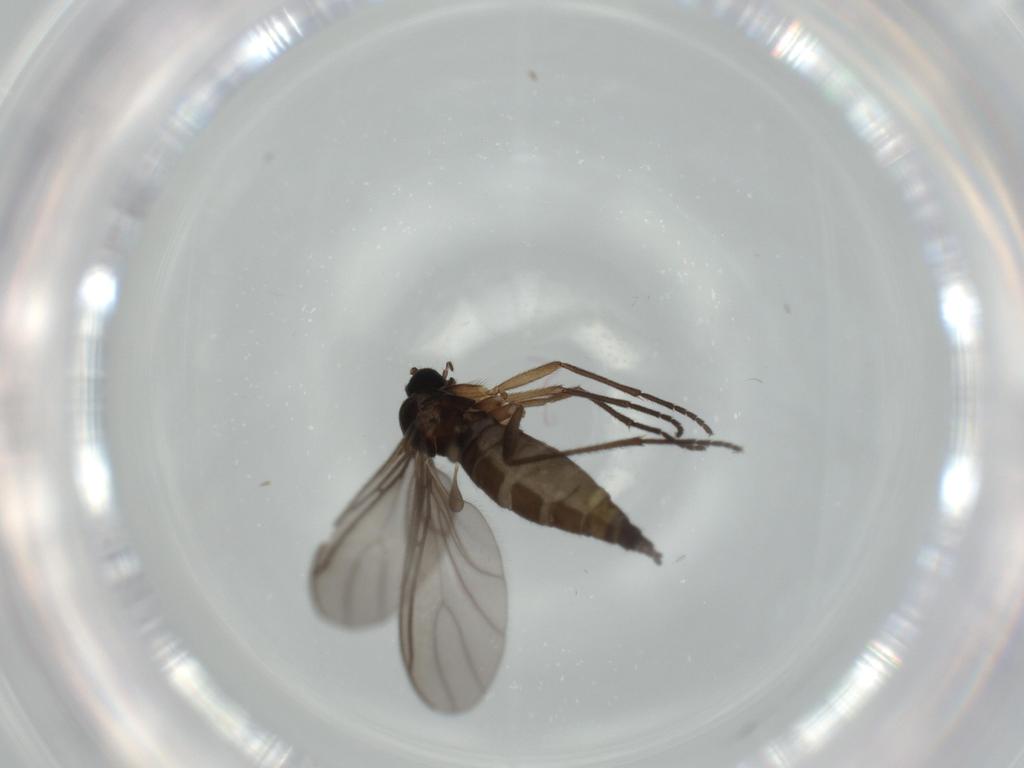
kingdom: Animalia
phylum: Arthropoda
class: Insecta
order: Diptera
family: Sciaridae
